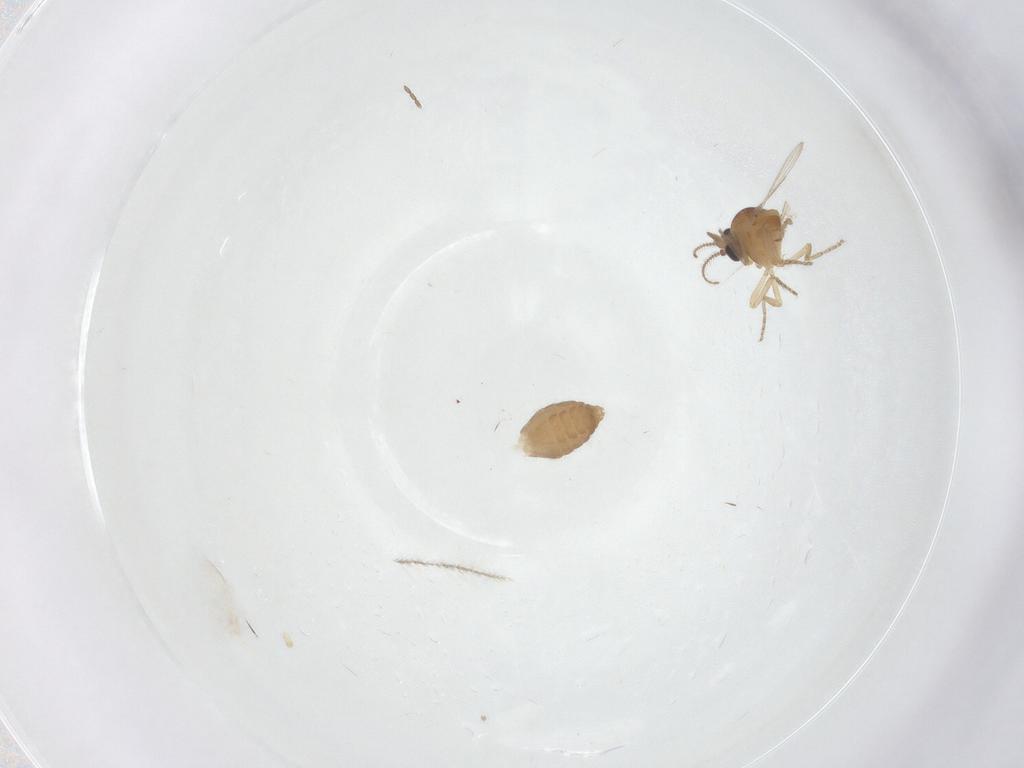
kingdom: Animalia
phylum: Arthropoda
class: Insecta
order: Diptera
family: Ceratopogonidae
